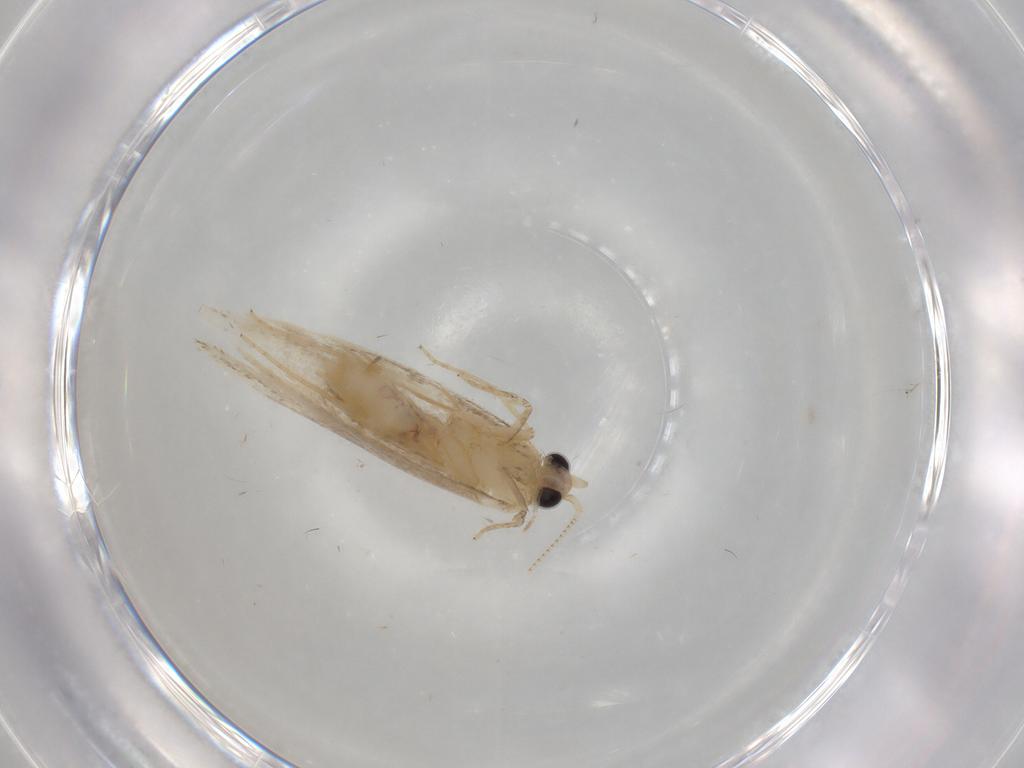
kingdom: Animalia
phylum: Arthropoda
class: Insecta
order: Lepidoptera
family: Nepticulidae
